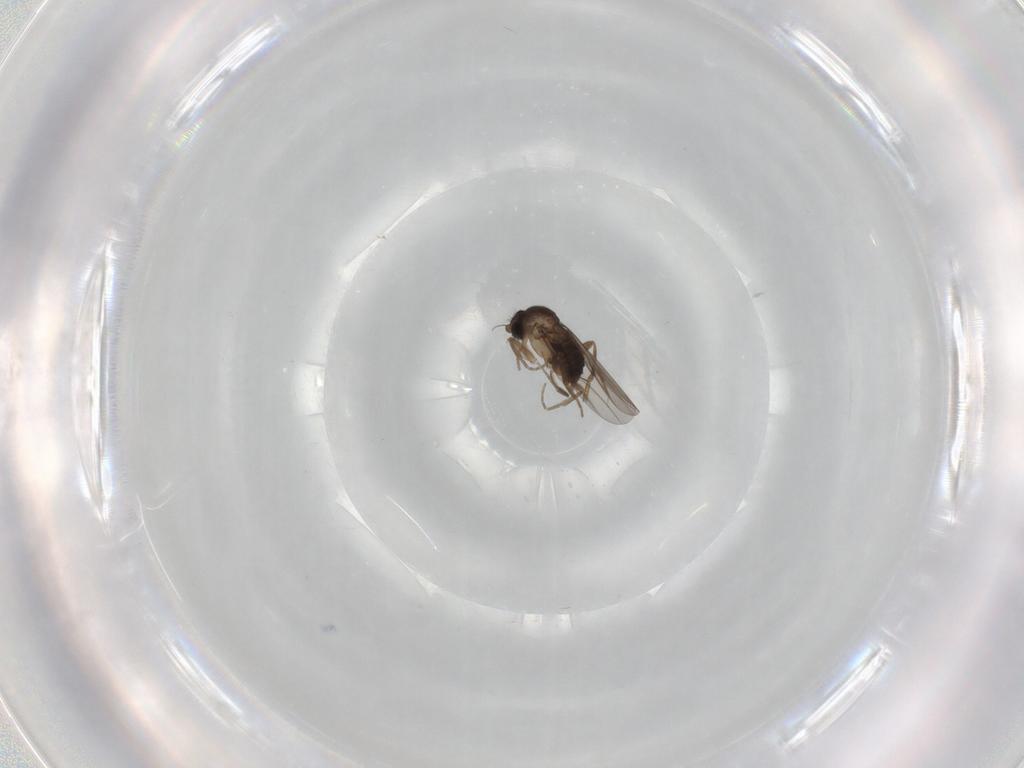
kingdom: Animalia
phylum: Arthropoda
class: Insecta
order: Diptera
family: Phoridae
